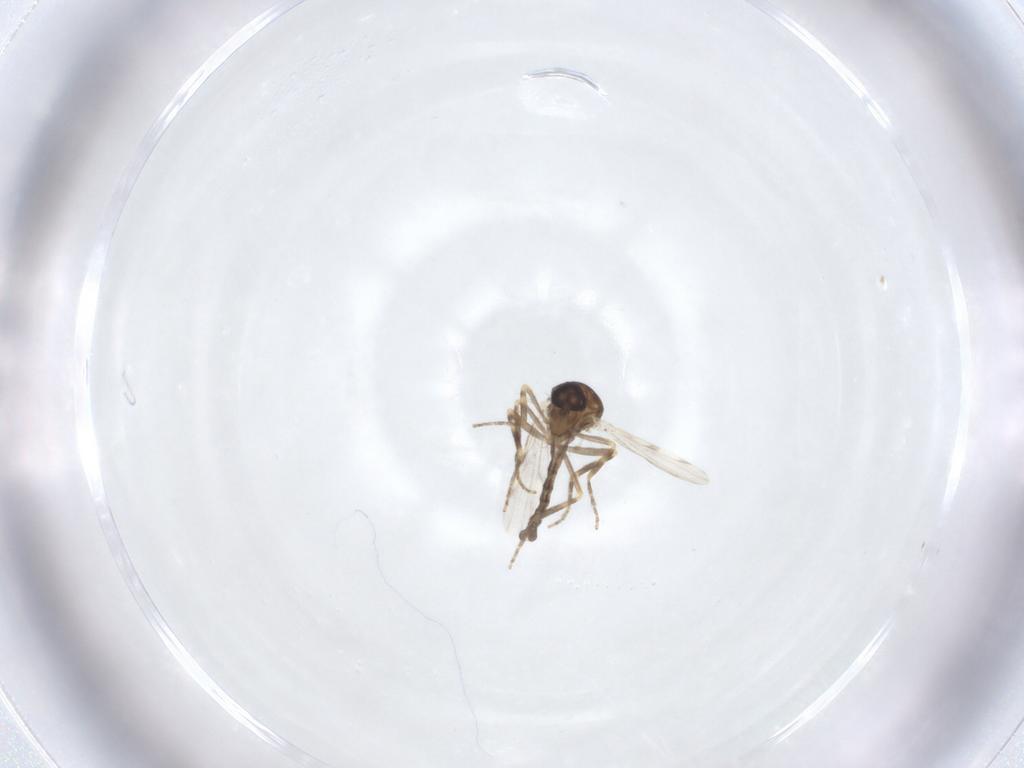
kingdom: Animalia
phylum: Arthropoda
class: Insecta
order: Diptera
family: Ceratopogonidae
